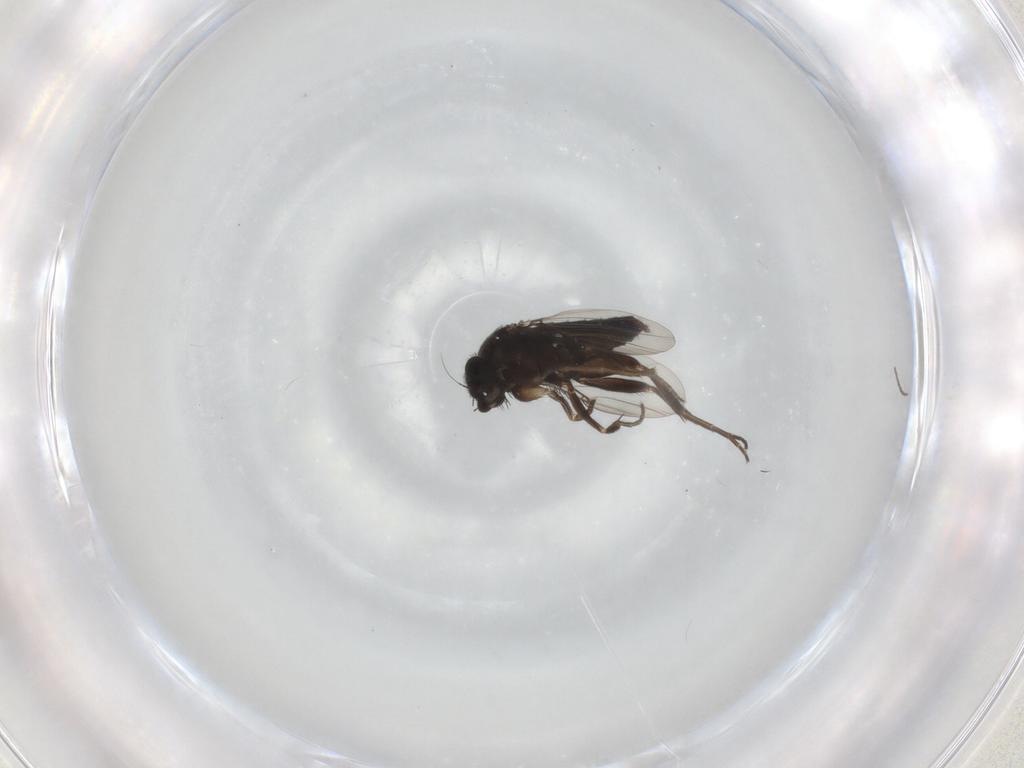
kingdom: Animalia
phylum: Arthropoda
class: Insecta
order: Diptera
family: Phoridae
